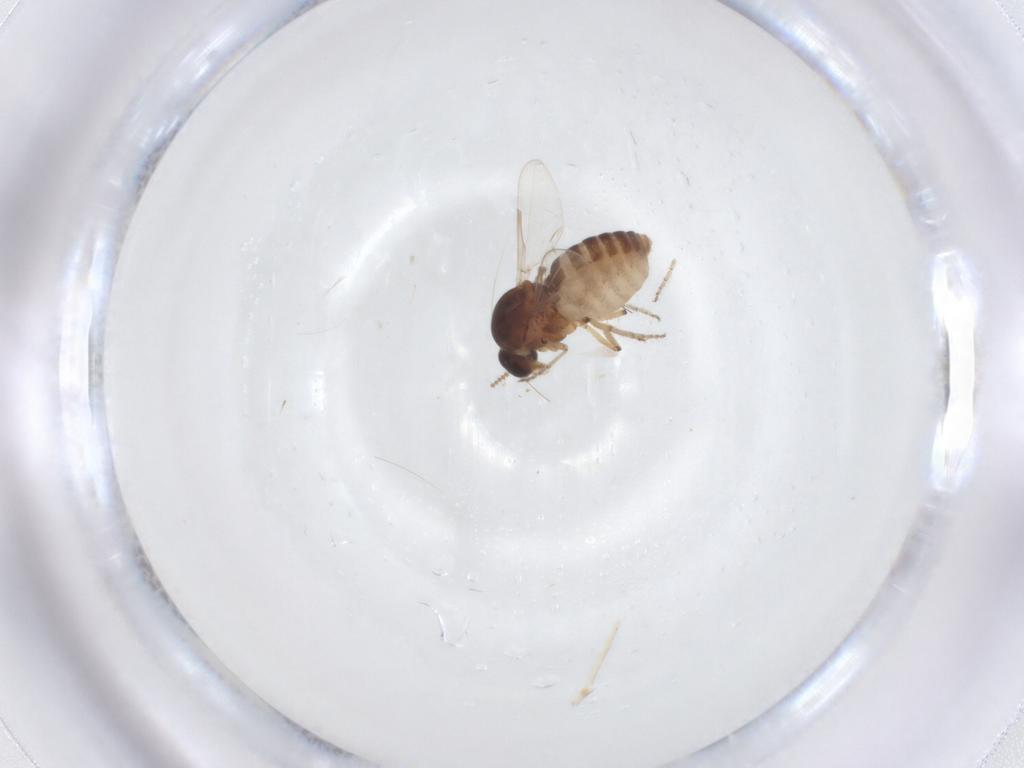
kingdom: Animalia
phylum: Arthropoda
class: Insecta
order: Diptera
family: Ceratopogonidae
